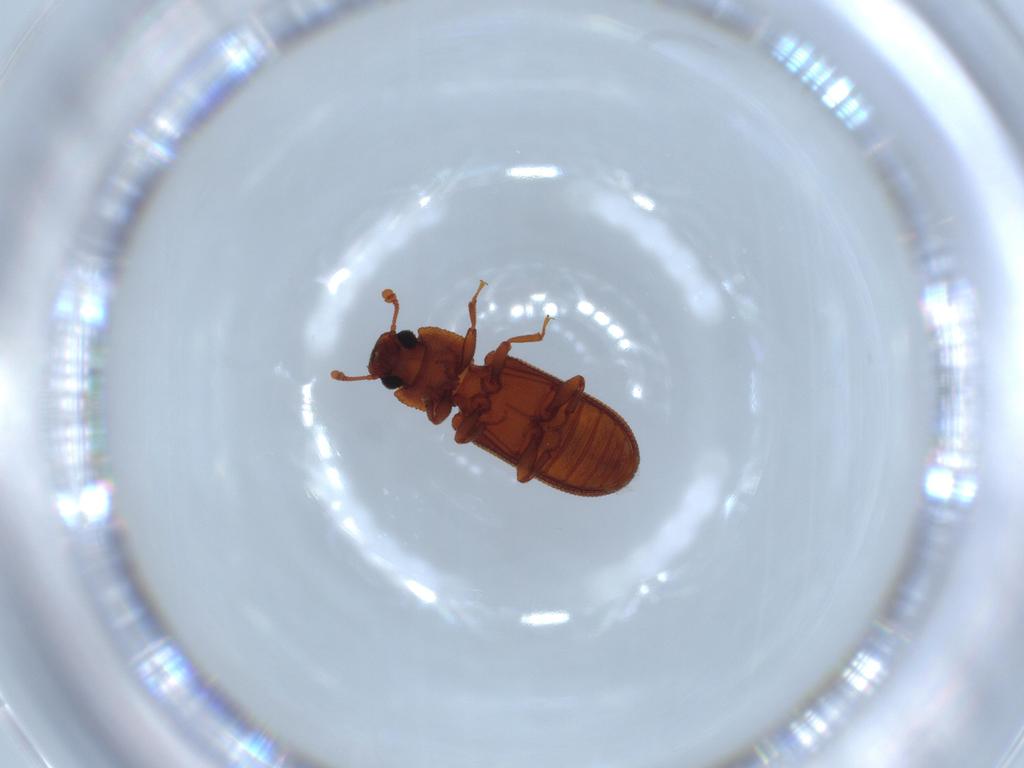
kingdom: Animalia
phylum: Arthropoda
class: Insecta
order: Coleoptera
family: Zopheridae
